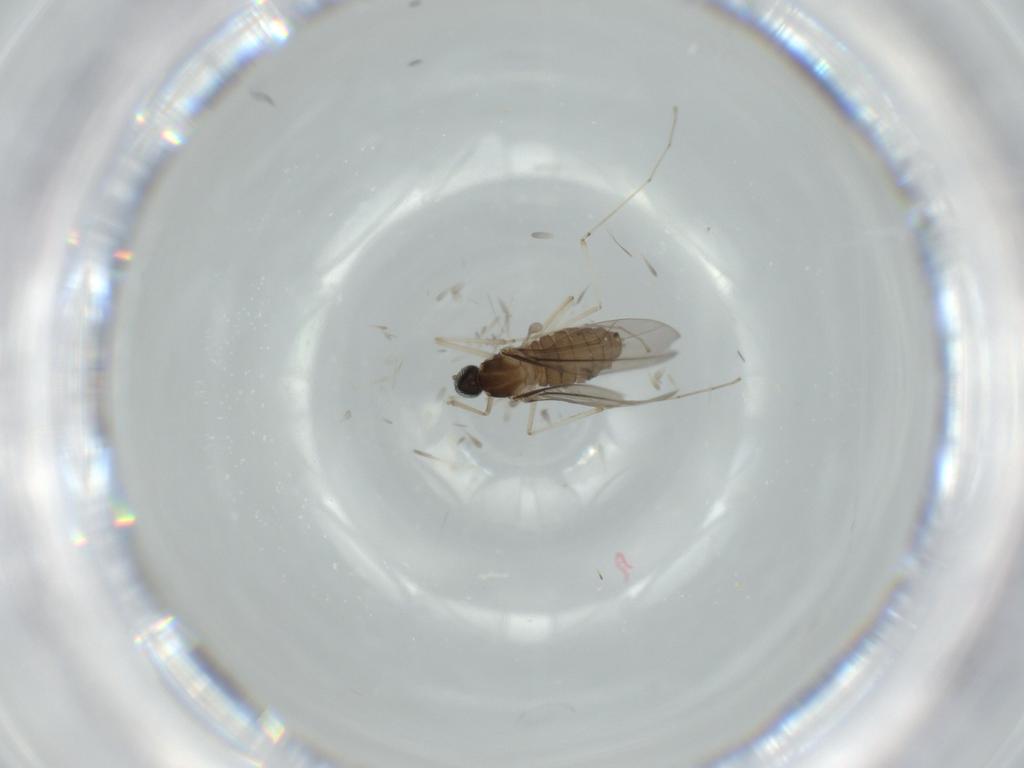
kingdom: Animalia
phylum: Arthropoda
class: Insecta
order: Diptera
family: Cecidomyiidae
